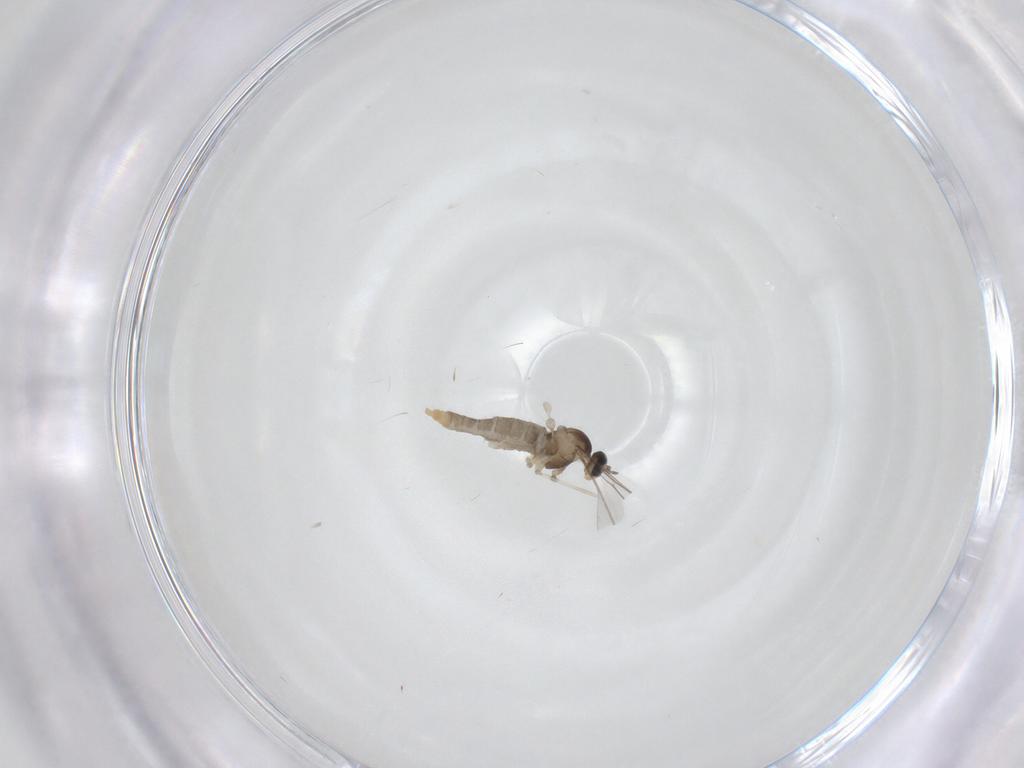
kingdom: Animalia
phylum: Arthropoda
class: Insecta
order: Diptera
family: Cecidomyiidae
